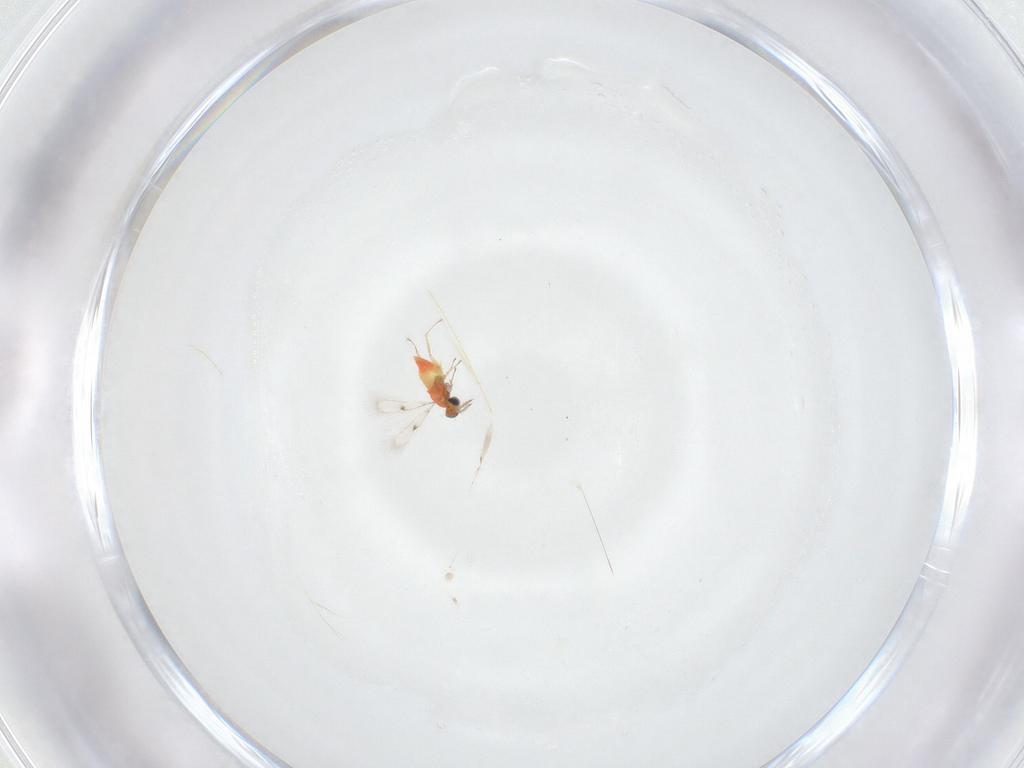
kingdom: Animalia
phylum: Arthropoda
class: Insecta
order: Hymenoptera
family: Trichogrammatidae
